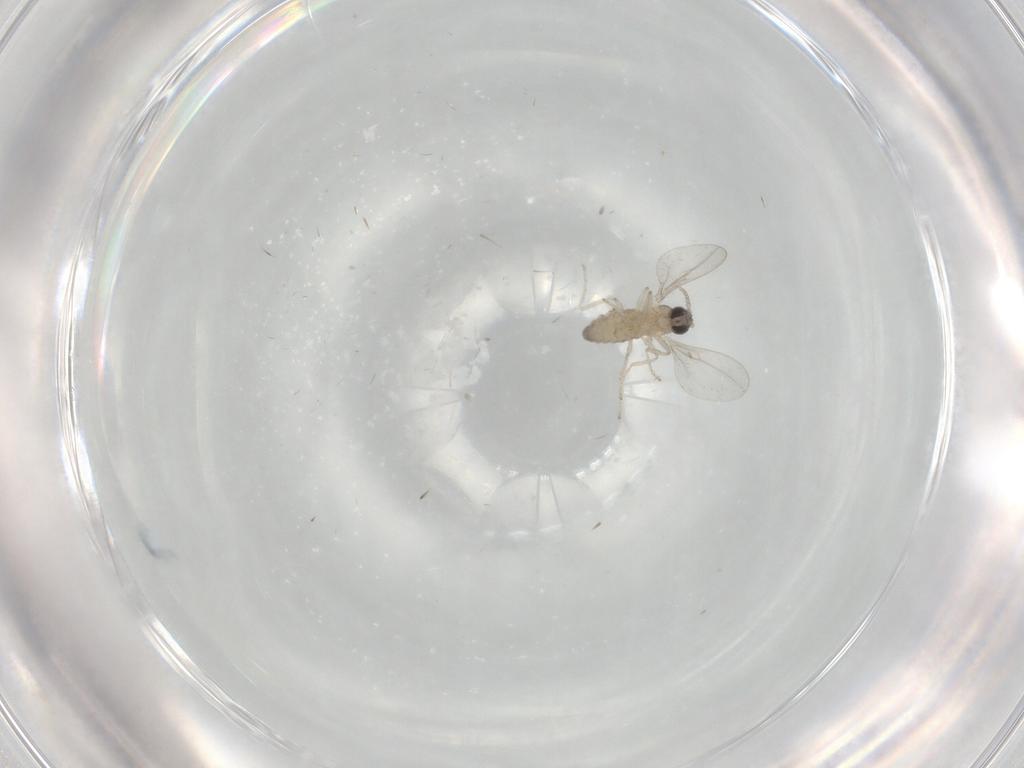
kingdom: Animalia
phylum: Arthropoda
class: Insecta
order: Diptera
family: Cecidomyiidae
